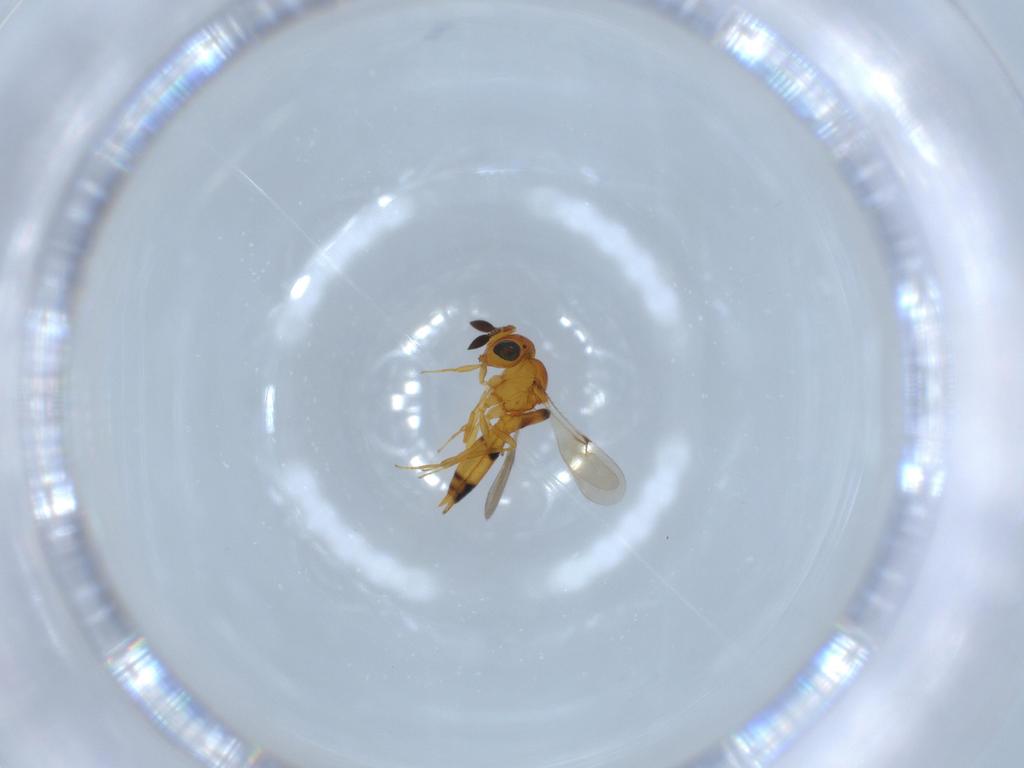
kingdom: Animalia
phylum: Arthropoda
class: Insecta
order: Hymenoptera
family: Scelionidae
